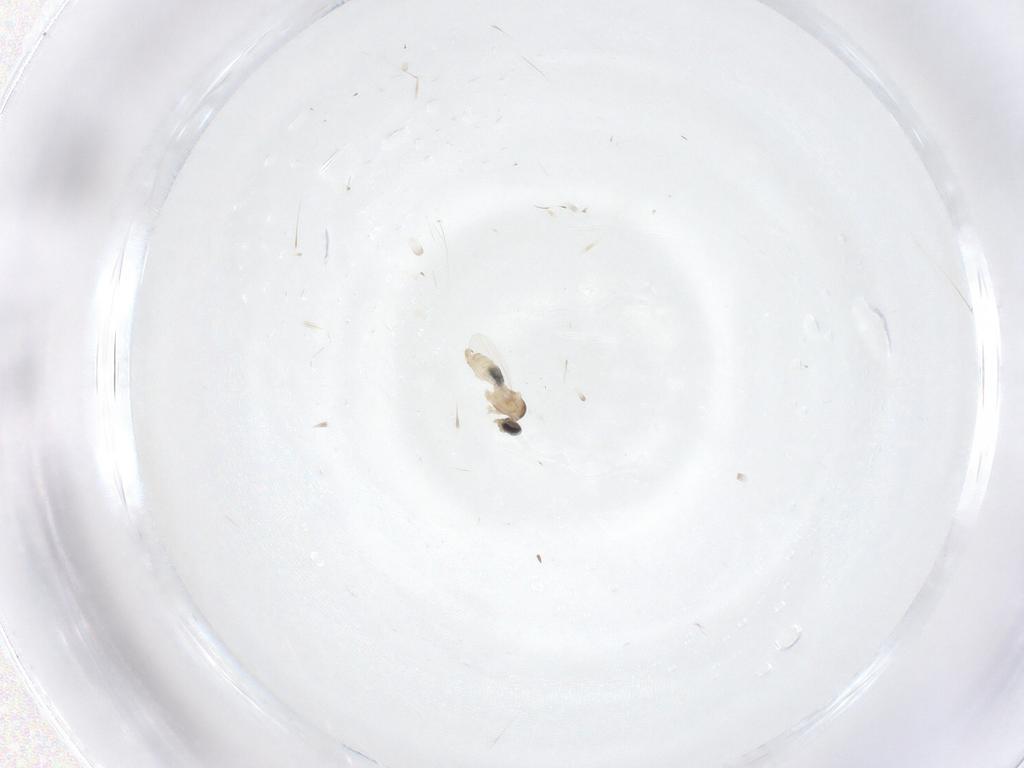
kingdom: Animalia
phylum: Arthropoda
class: Insecta
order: Diptera
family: Cecidomyiidae
